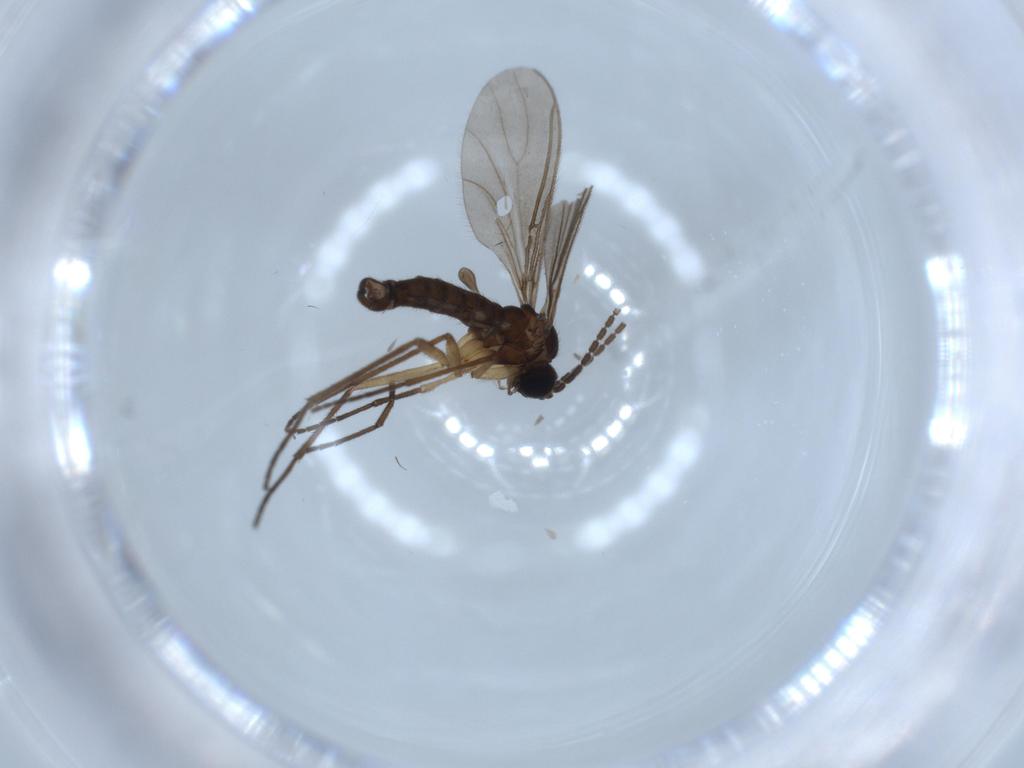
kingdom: Animalia
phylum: Arthropoda
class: Insecta
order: Diptera
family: Sciaridae
